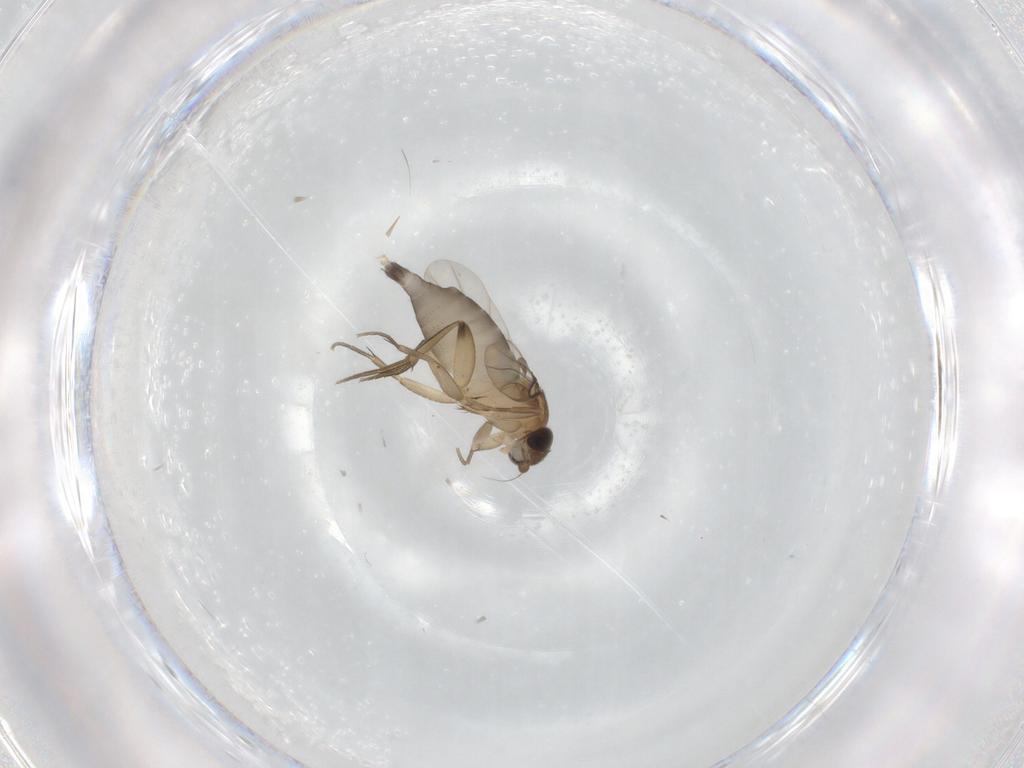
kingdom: Animalia
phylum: Arthropoda
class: Insecta
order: Diptera
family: Phoridae
